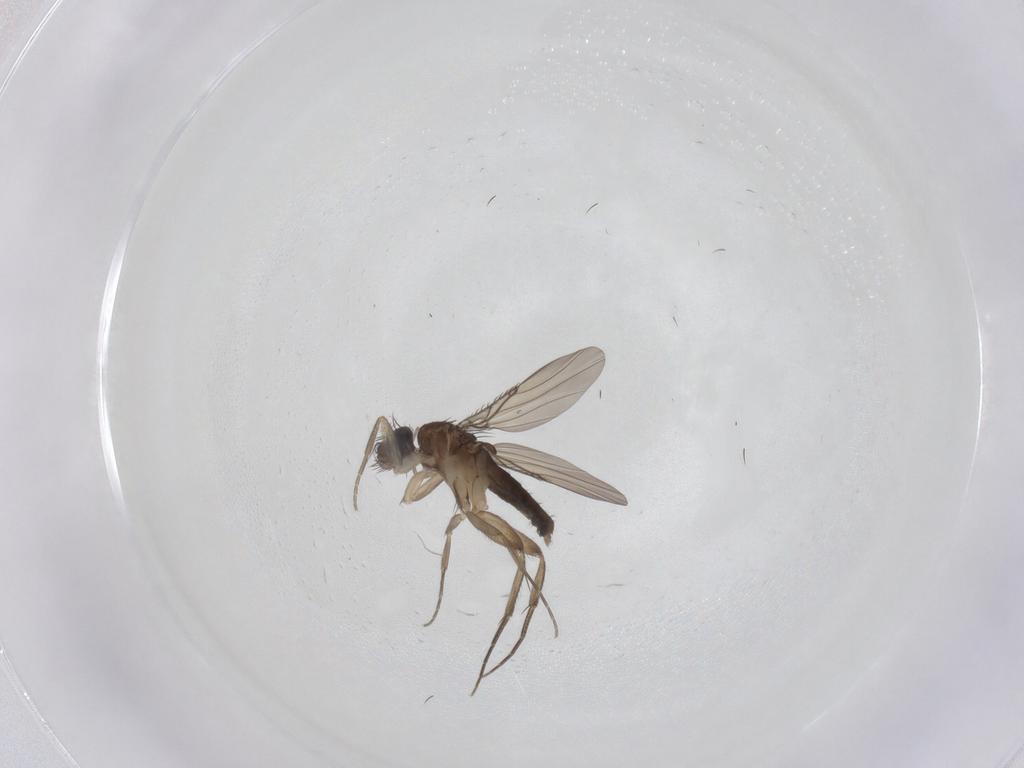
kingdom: Animalia
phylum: Arthropoda
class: Insecta
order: Diptera
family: Phoridae
